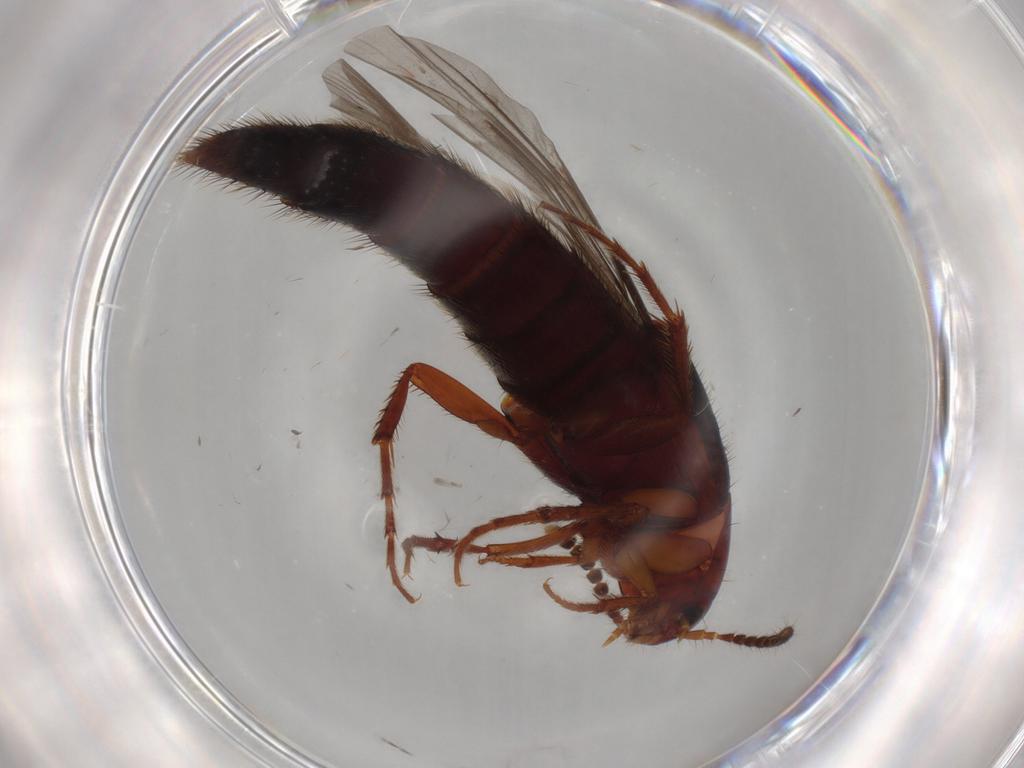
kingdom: Animalia
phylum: Arthropoda
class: Insecta
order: Coleoptera
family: Staphylinidae
